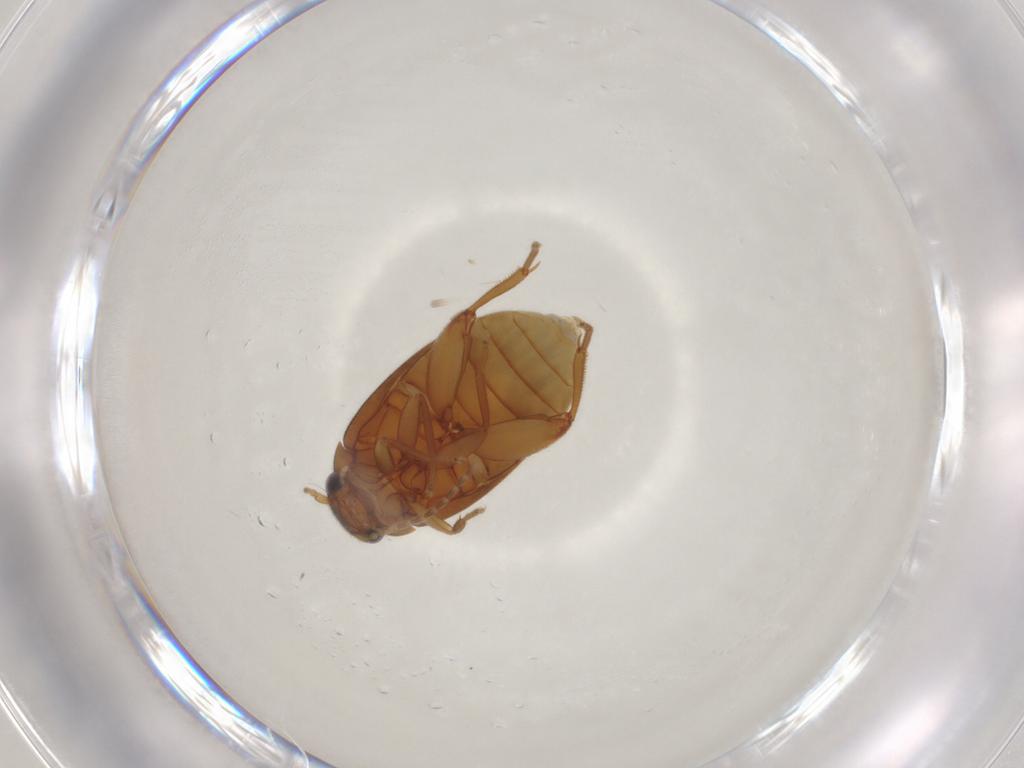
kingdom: Animalia
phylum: Arthropoda
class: Insecta
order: Coleoptera
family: Scirtidae
